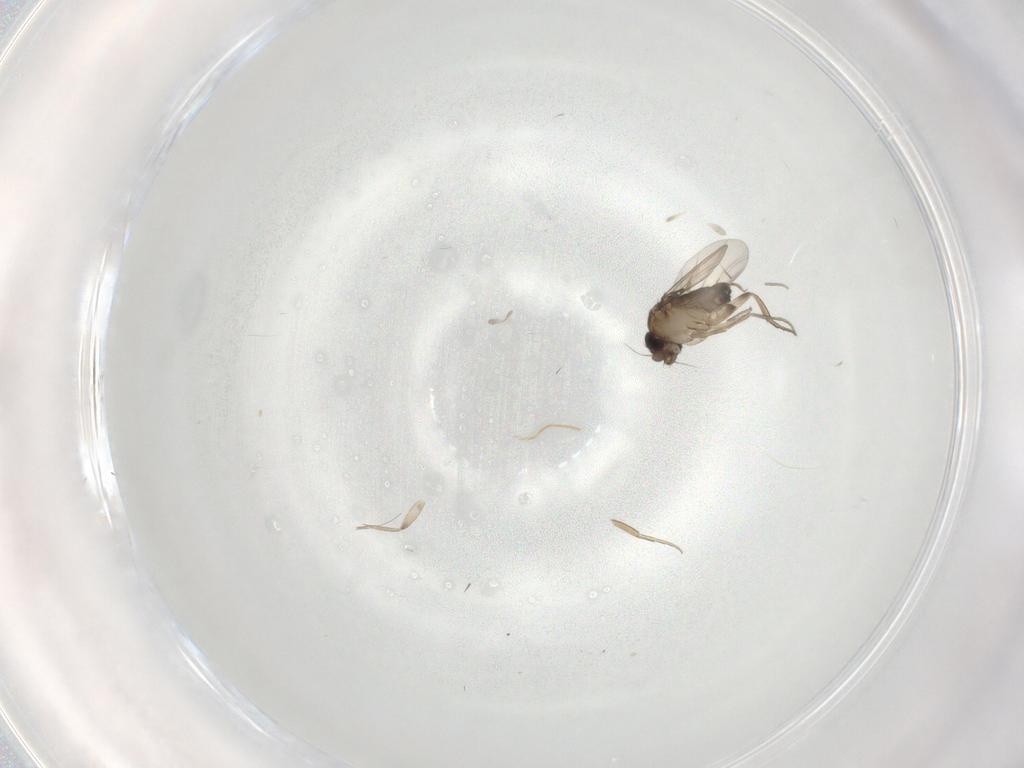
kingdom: Animalia
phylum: Arthropoda
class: Insecta
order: Diptera
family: Phoridae
